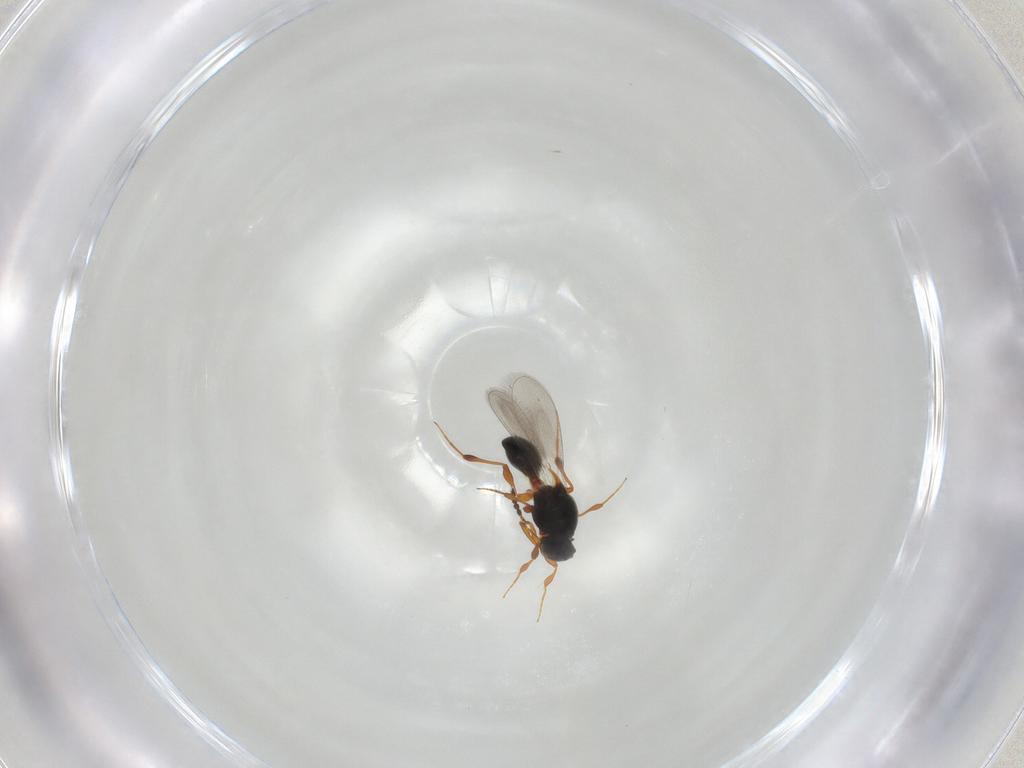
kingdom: Animalia
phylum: Arthropoda
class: Insecta
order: Hymenoptera
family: Platygastridae
